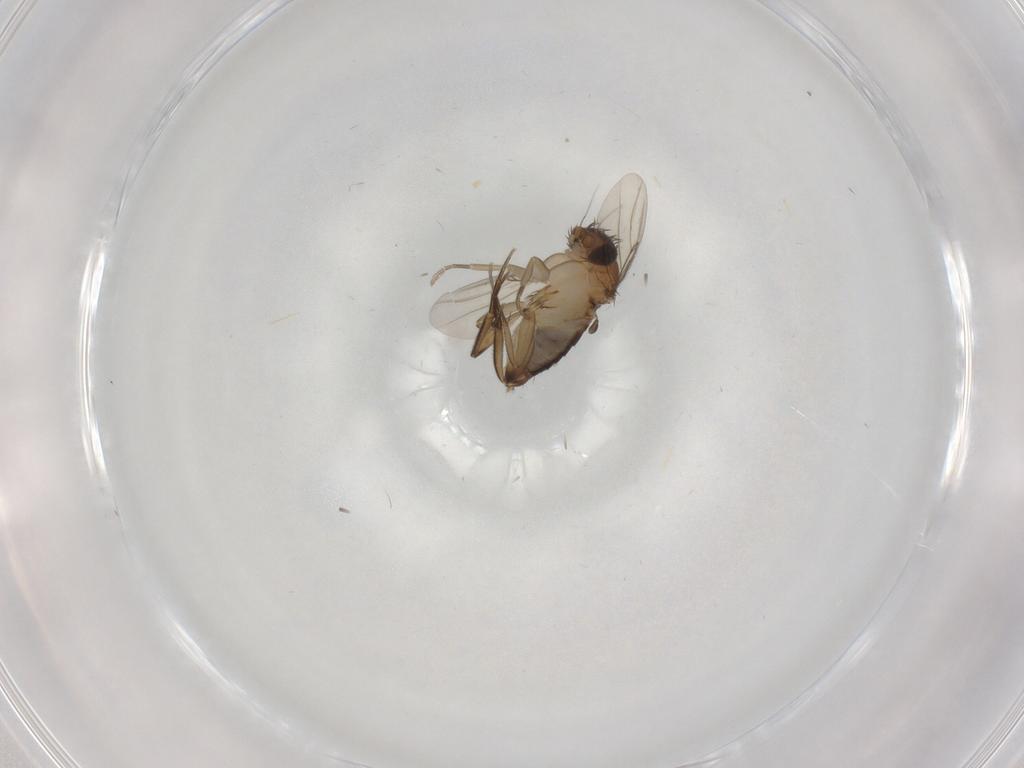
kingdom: Animalia
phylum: Arthropoda
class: Insecta
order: Diptera
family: Phoridae
